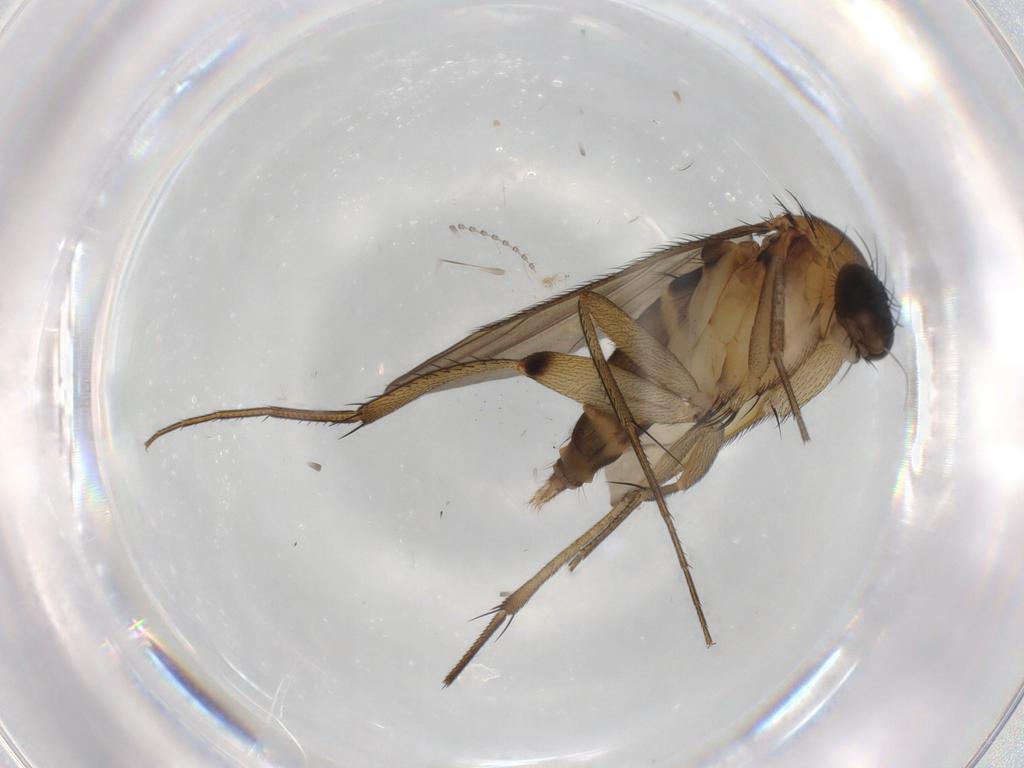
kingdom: Animalia
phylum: Arthropoda
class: Insecta
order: Diptera
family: Phoridae
